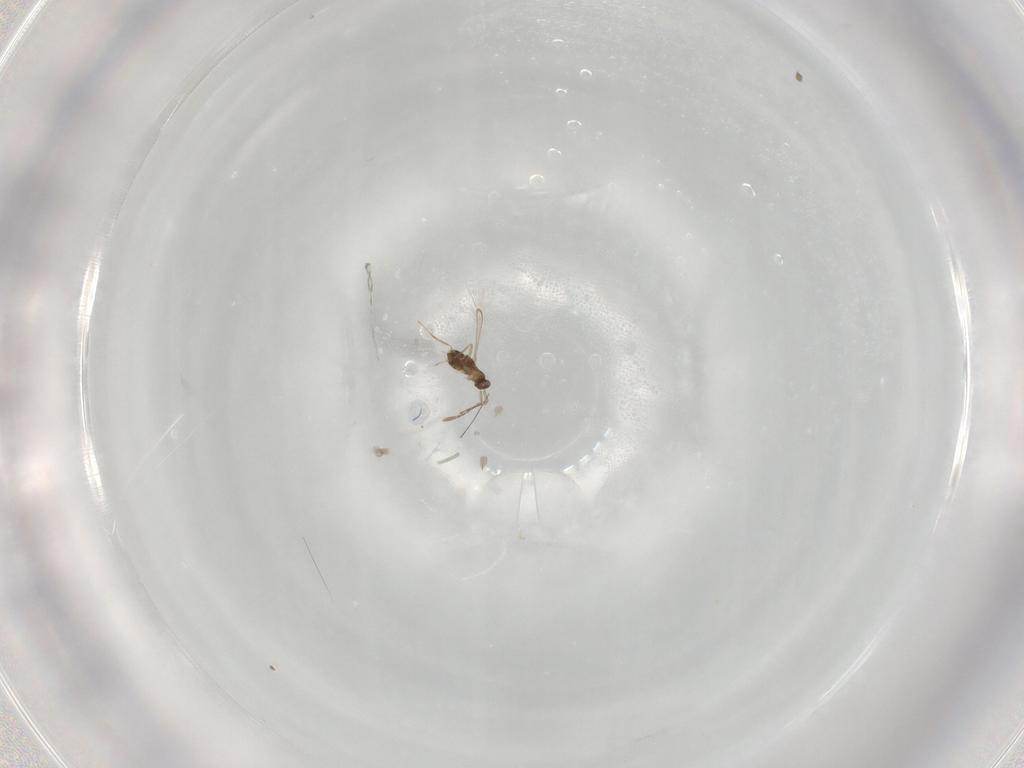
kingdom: Animalia
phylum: Arthropoda
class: Insecta
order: Hymenoptera
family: Mymaridae
